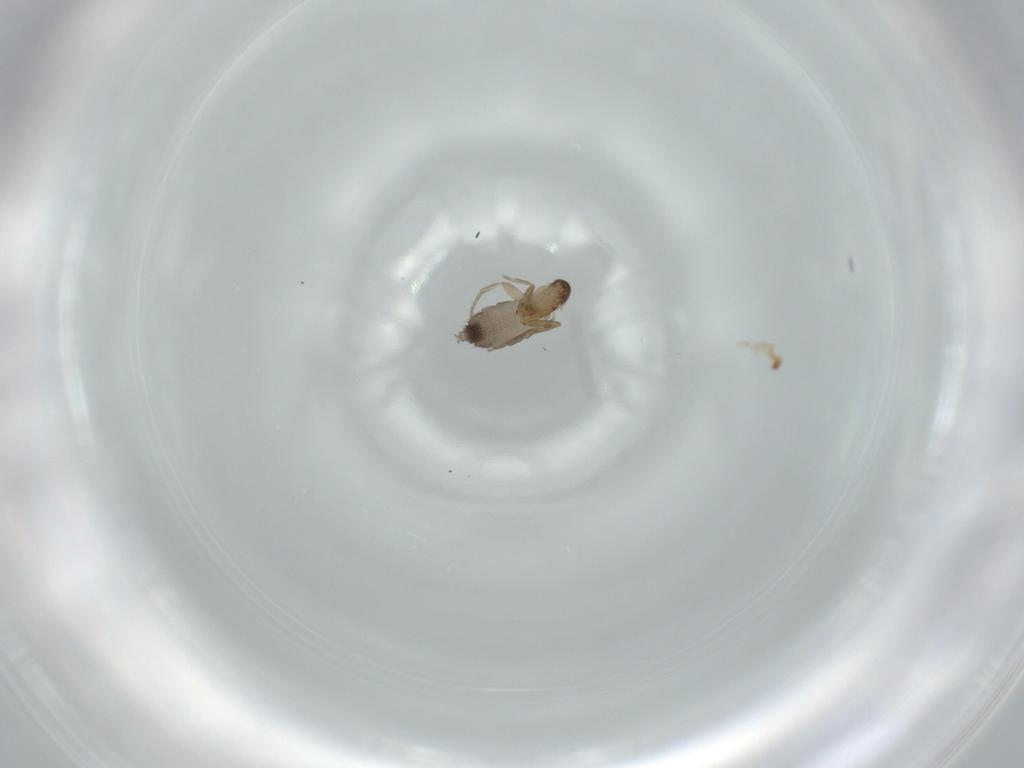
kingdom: Animalia
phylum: Arthropoda
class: Insecta
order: Diptera
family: Phoridae
